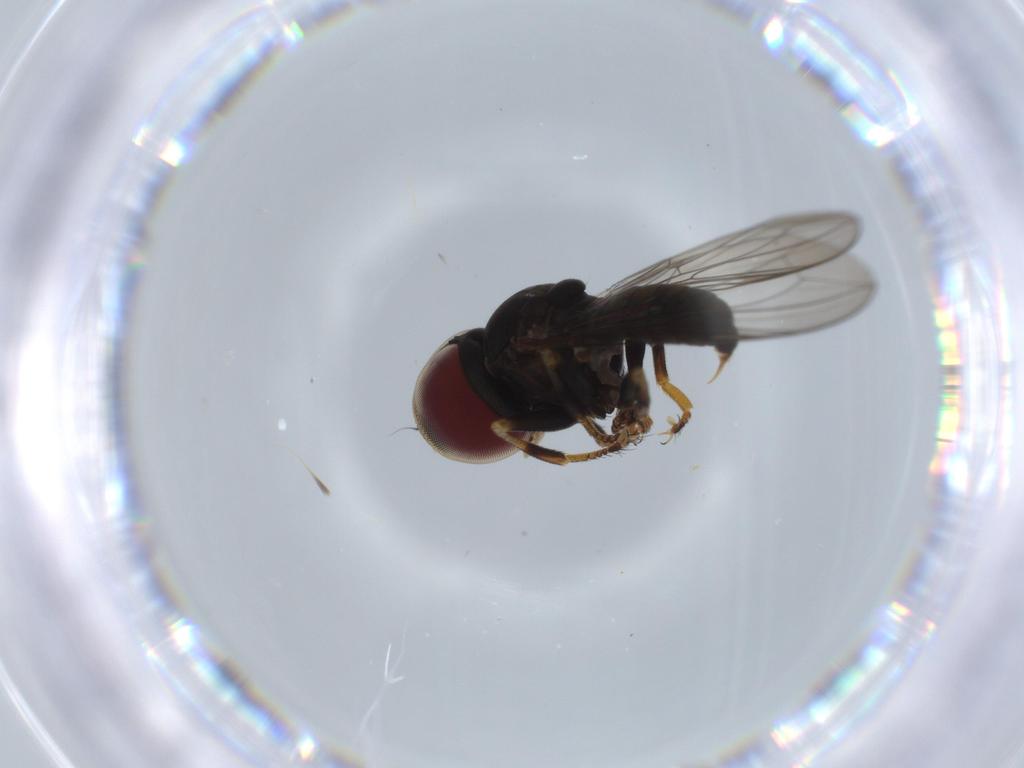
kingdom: Animalia
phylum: Arthropoda
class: Insecta
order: Diptera
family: Pipunculidae
